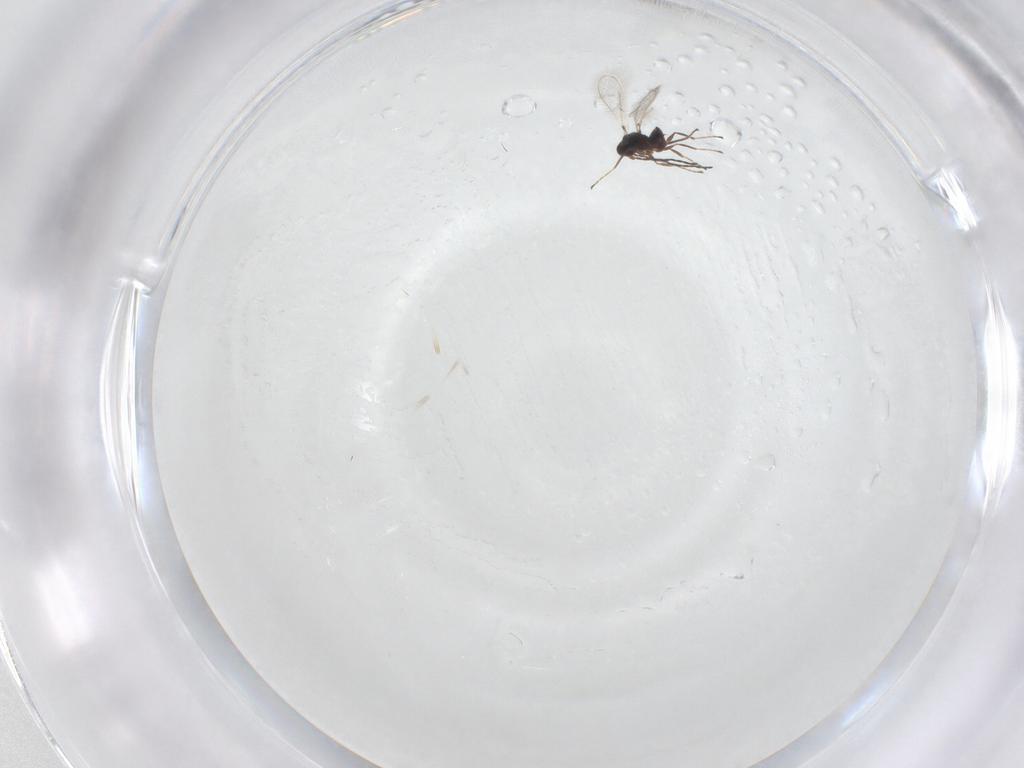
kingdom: Animalia
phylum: Arthropoda
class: Insecta
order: Hymenoptera
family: Mymaridae
